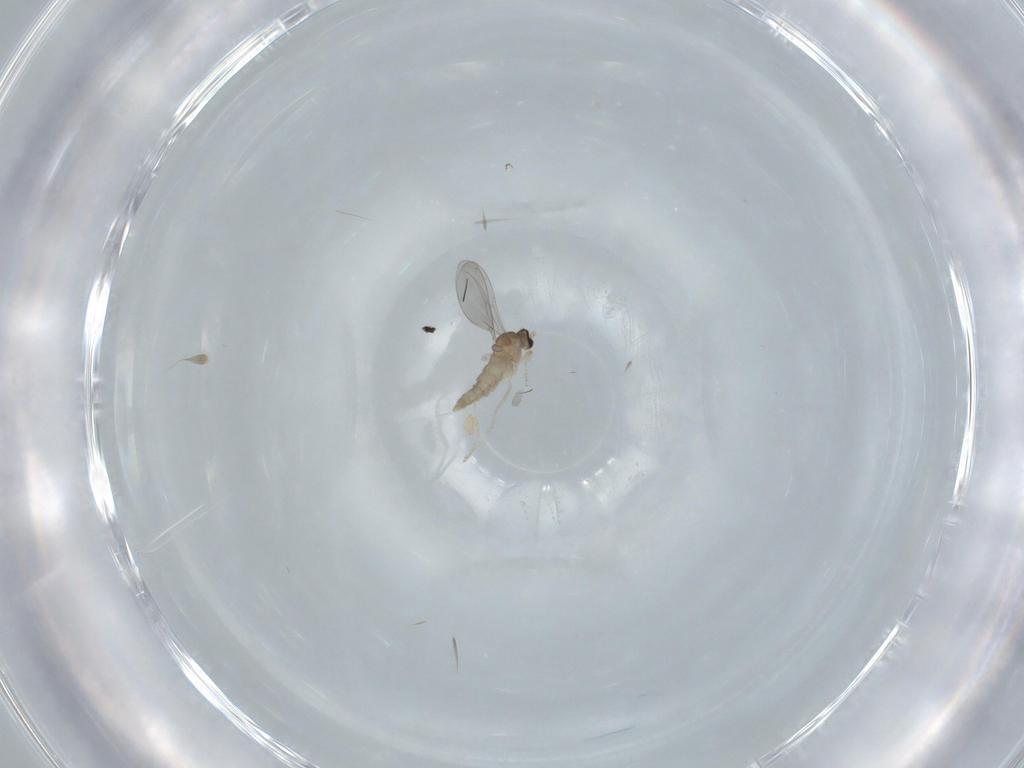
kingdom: Animalia
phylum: Arthropoda
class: Insecta
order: Diptera
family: Cecidomyiidae
